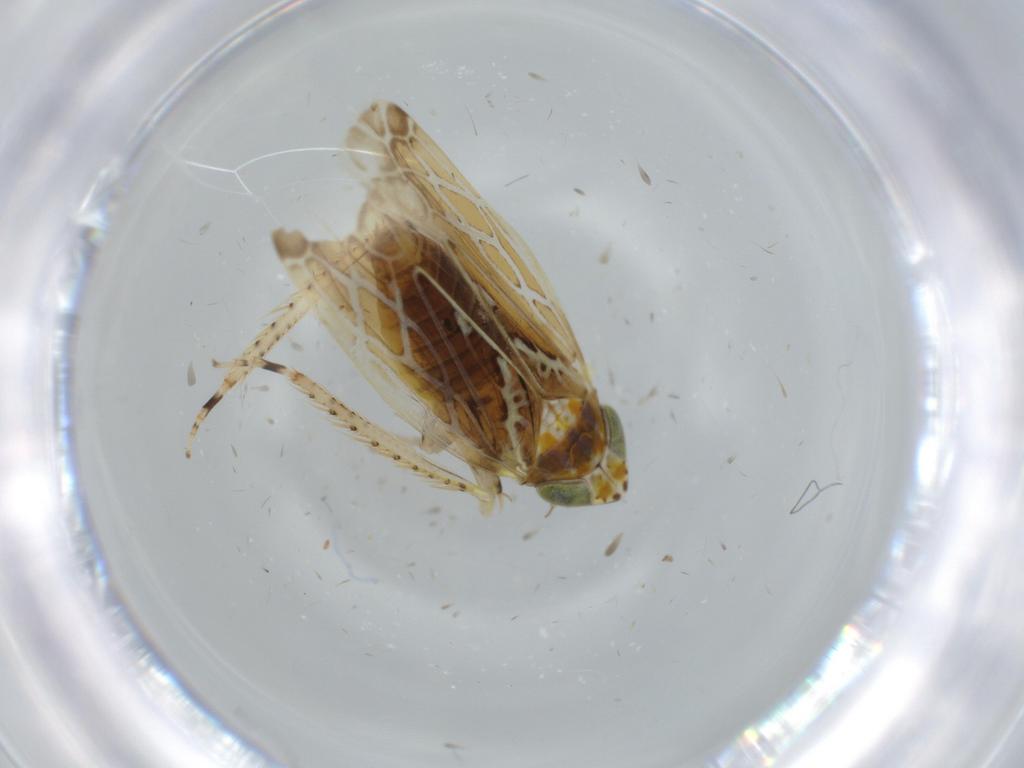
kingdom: Animalia
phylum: Arthropoda
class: Insecta
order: Hemiptera
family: Cicadellidae
